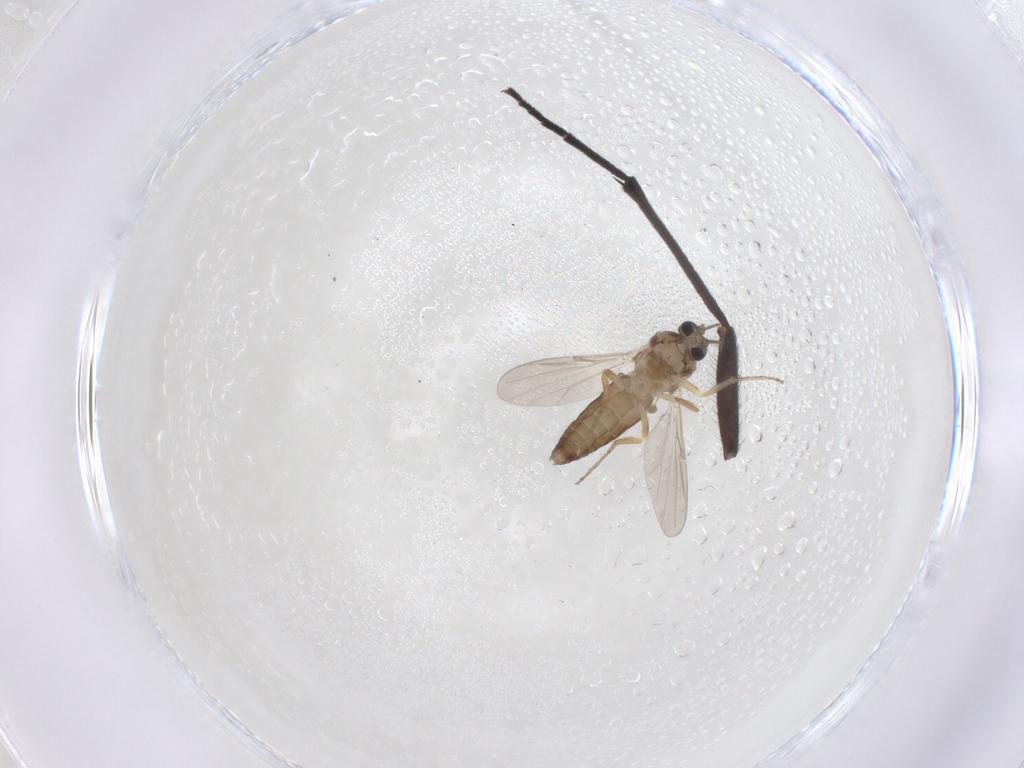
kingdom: Animalia
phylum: Arthropoda
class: Insecta
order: Diptera
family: Ceratopogonidae
